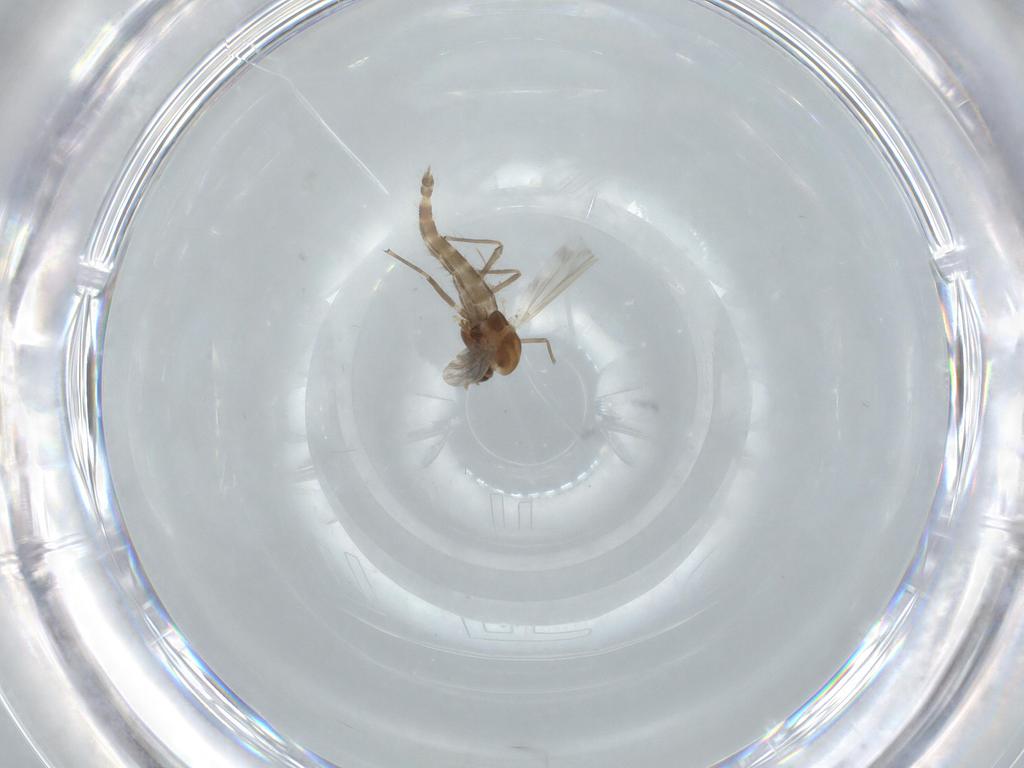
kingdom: Animalia
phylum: Arthropoda
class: Insecta
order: Diptera
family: Chironomidae
